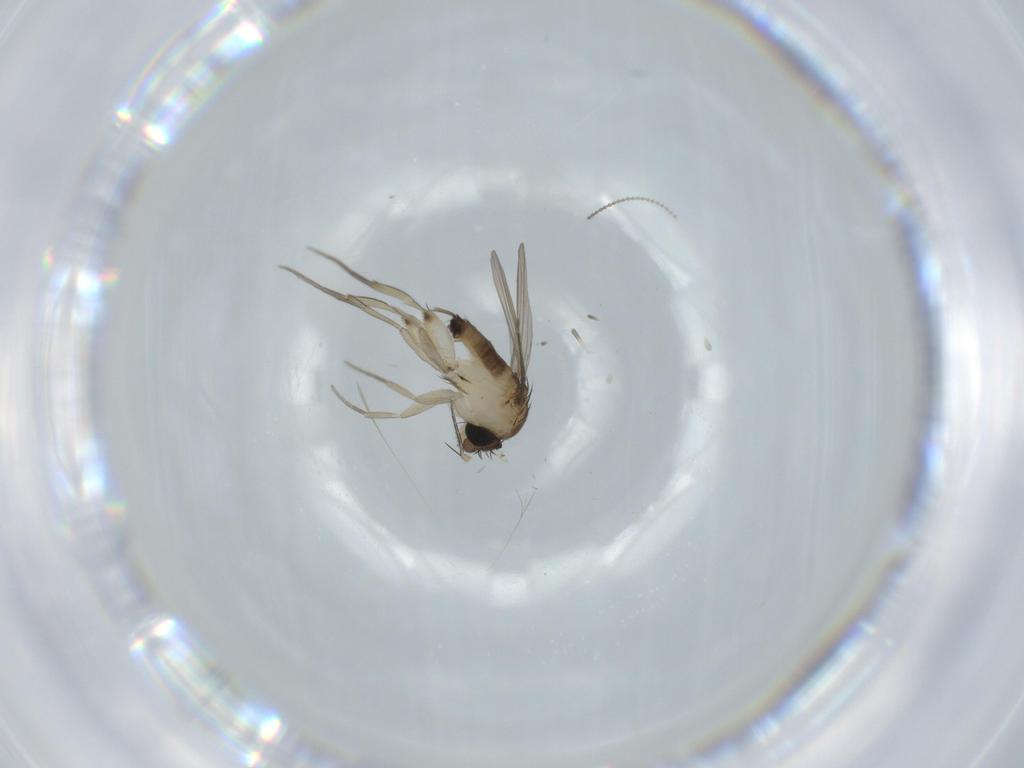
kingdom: Animalia
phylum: Arthropoda
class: Insecta
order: Diptera
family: Phoridae
